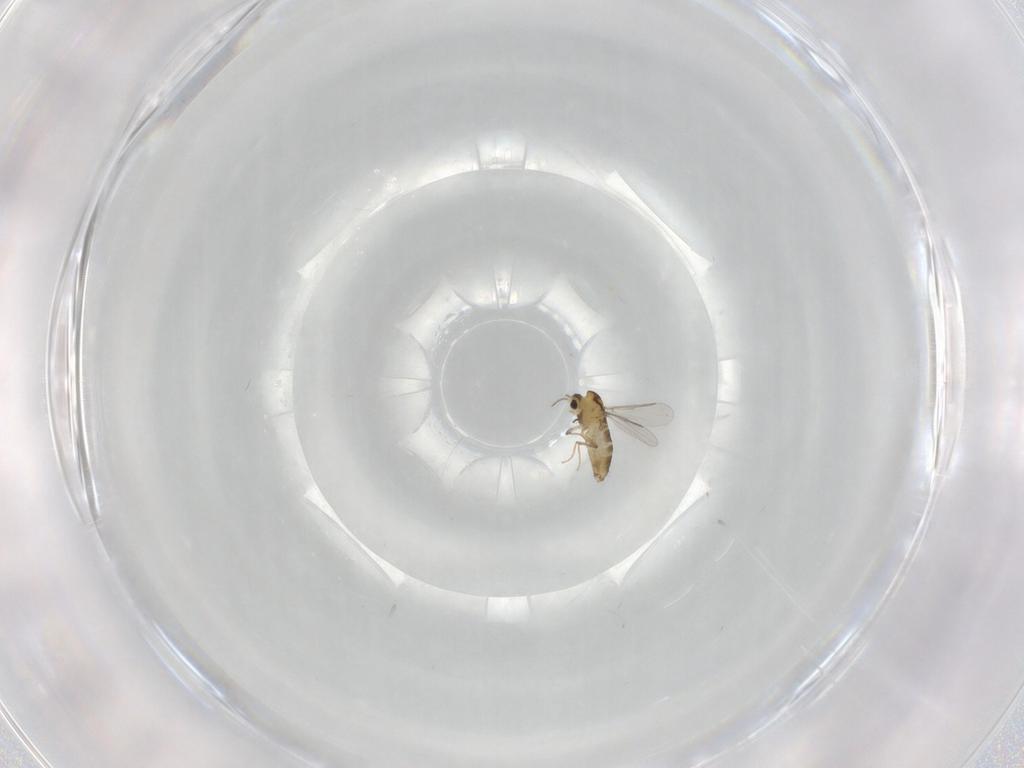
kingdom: Animalia
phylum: Arthropoda
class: Insecta
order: Diptera
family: Chironomidae
